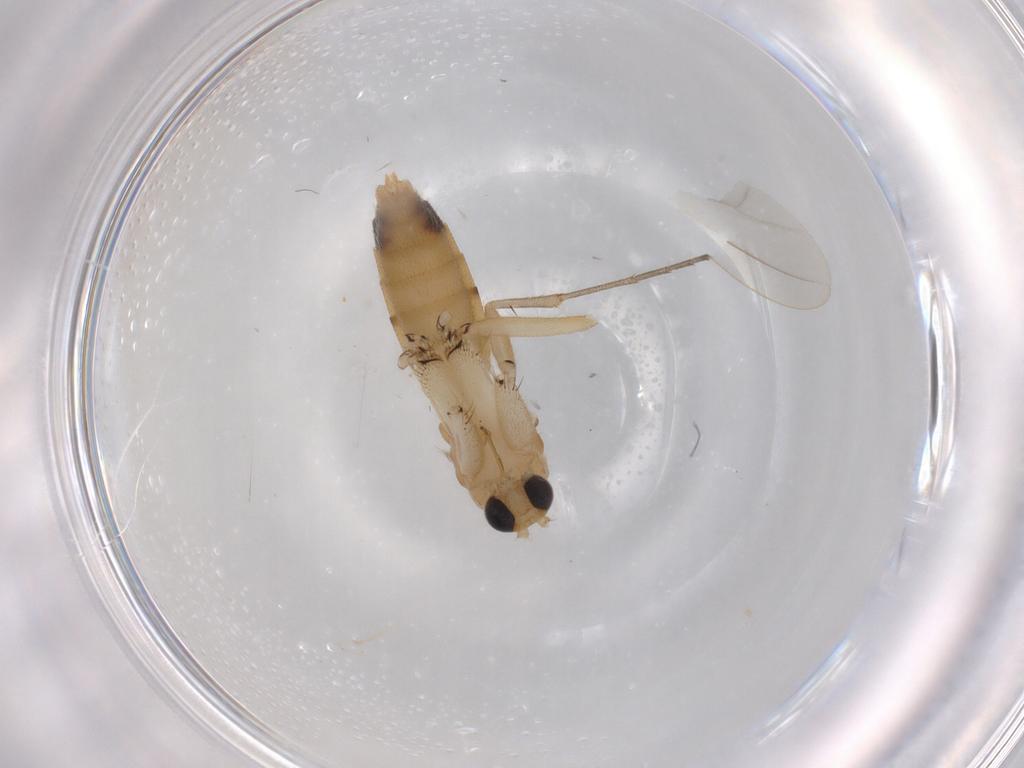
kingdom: Animalia
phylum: Arthropoda
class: Insecta
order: Diptera
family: Mycetophilidae
